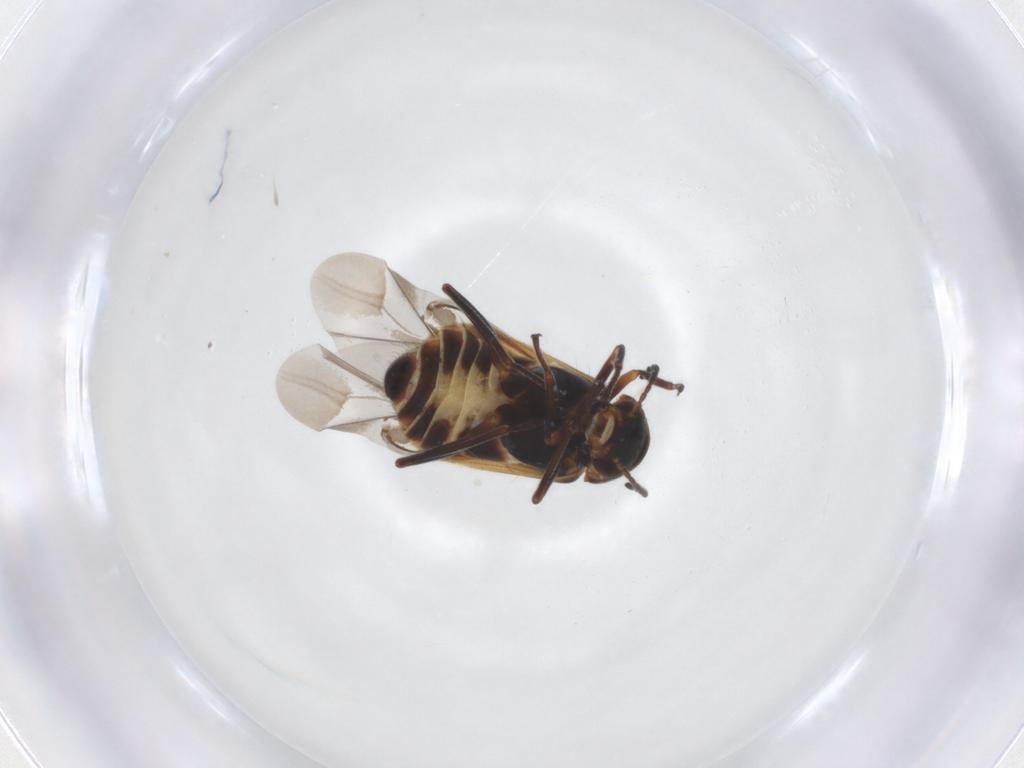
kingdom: Animalia
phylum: Arthropoda
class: Insecta
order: Coleoptera
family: Melyridae
